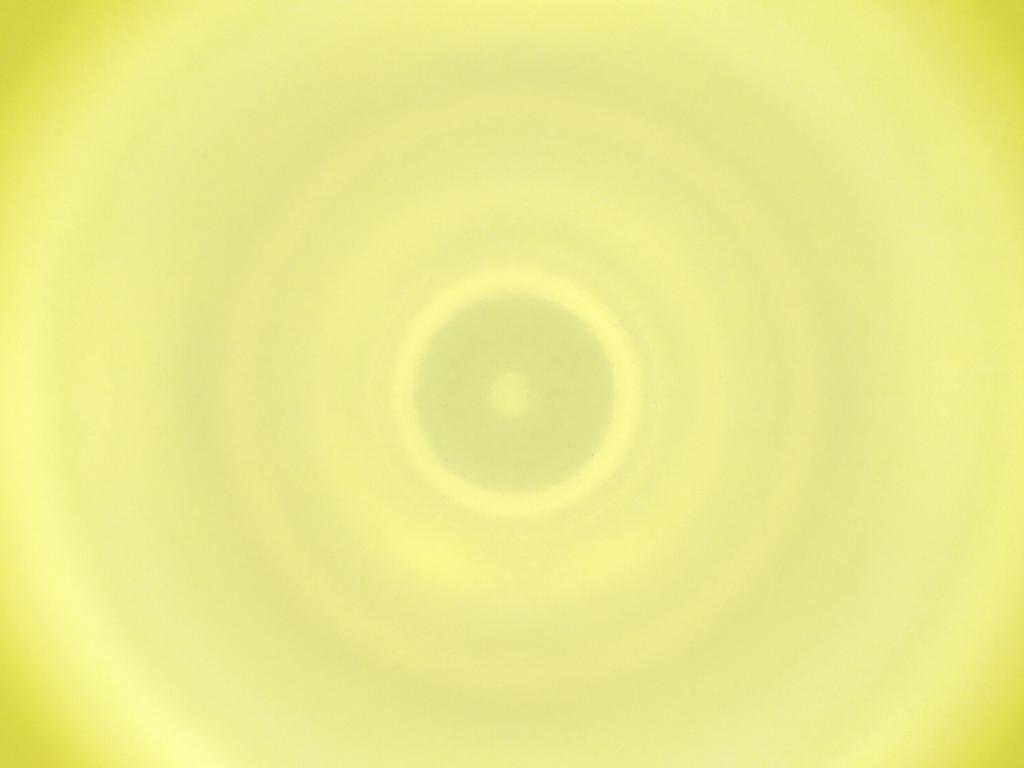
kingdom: Animalia
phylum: Arthropoda
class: Insecta
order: Diptera
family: Cecidomyiidae
